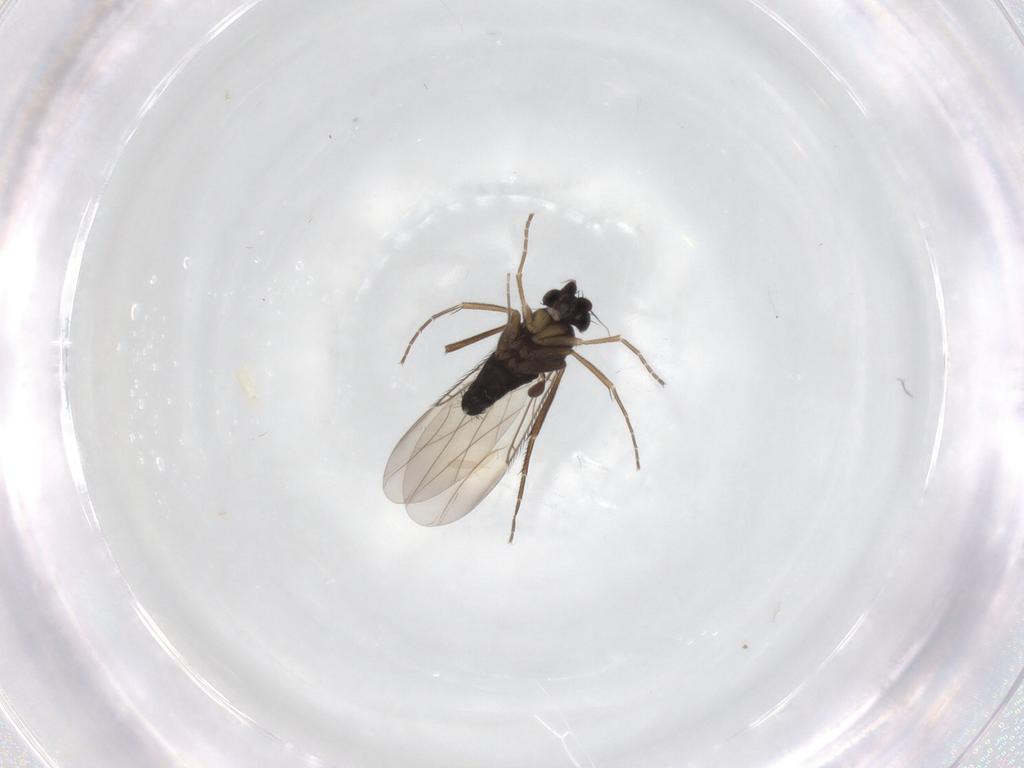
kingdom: Animalia
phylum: Arthropoda
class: Insecta
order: Diptera
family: Phoridae
